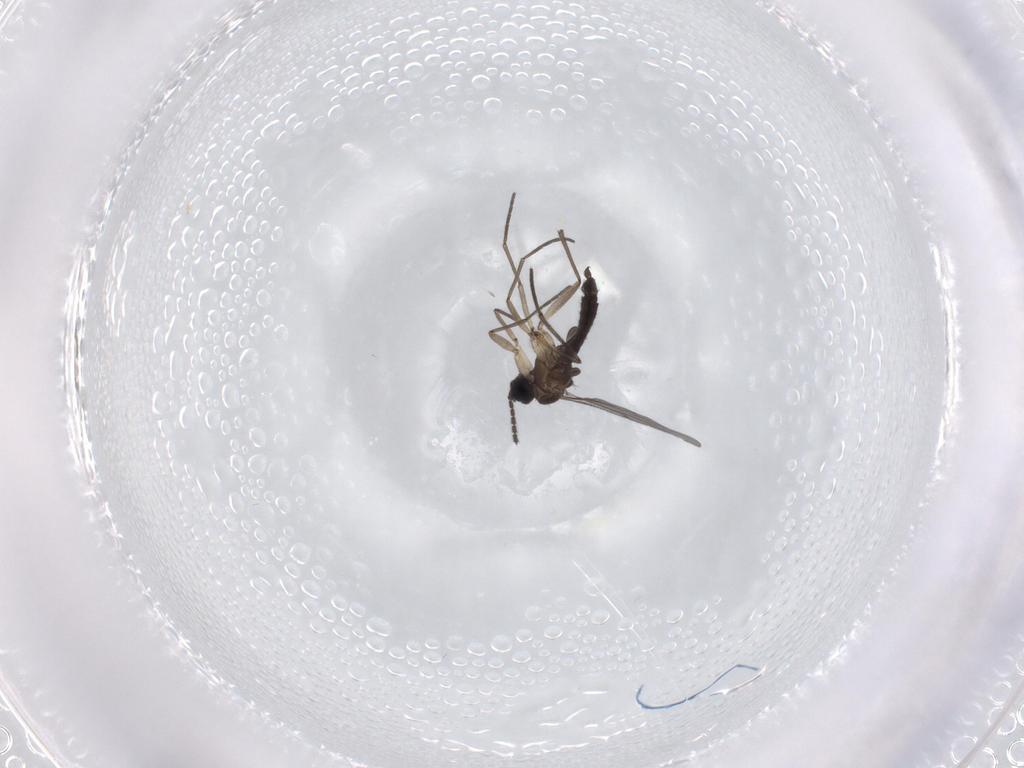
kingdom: Animalia
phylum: Arthropoda
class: Insecta
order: Diptera
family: Sciaridae
